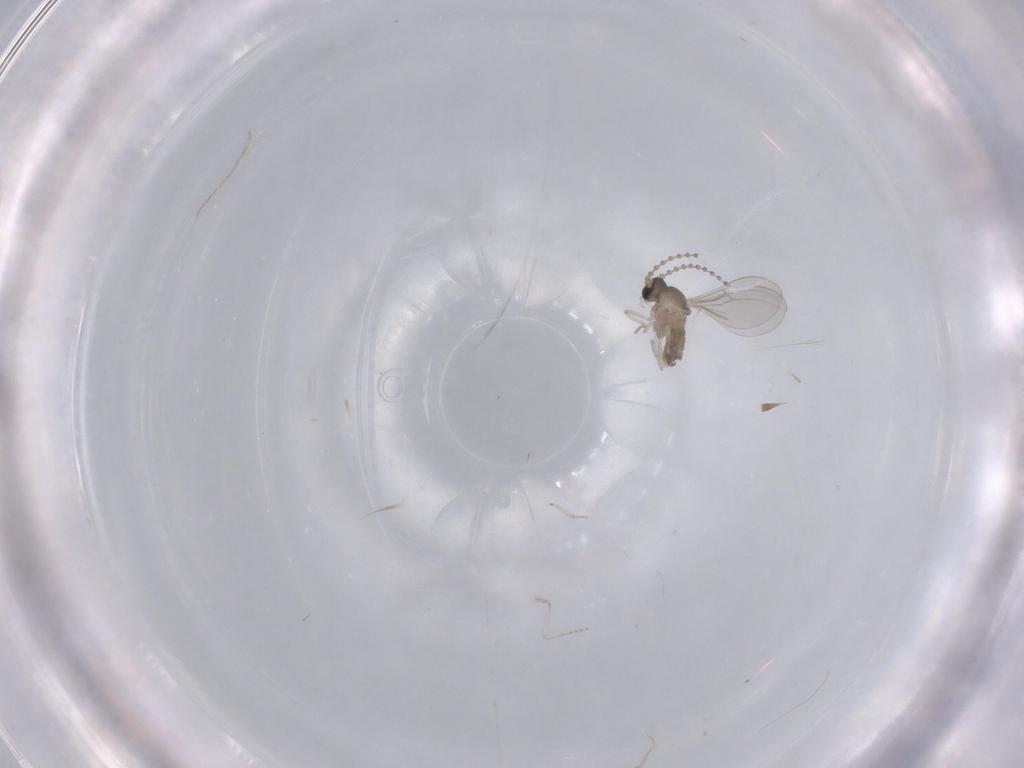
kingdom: Animalia
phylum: Arthropoda
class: Insecta
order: Diptera
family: Cecidomyiidae
